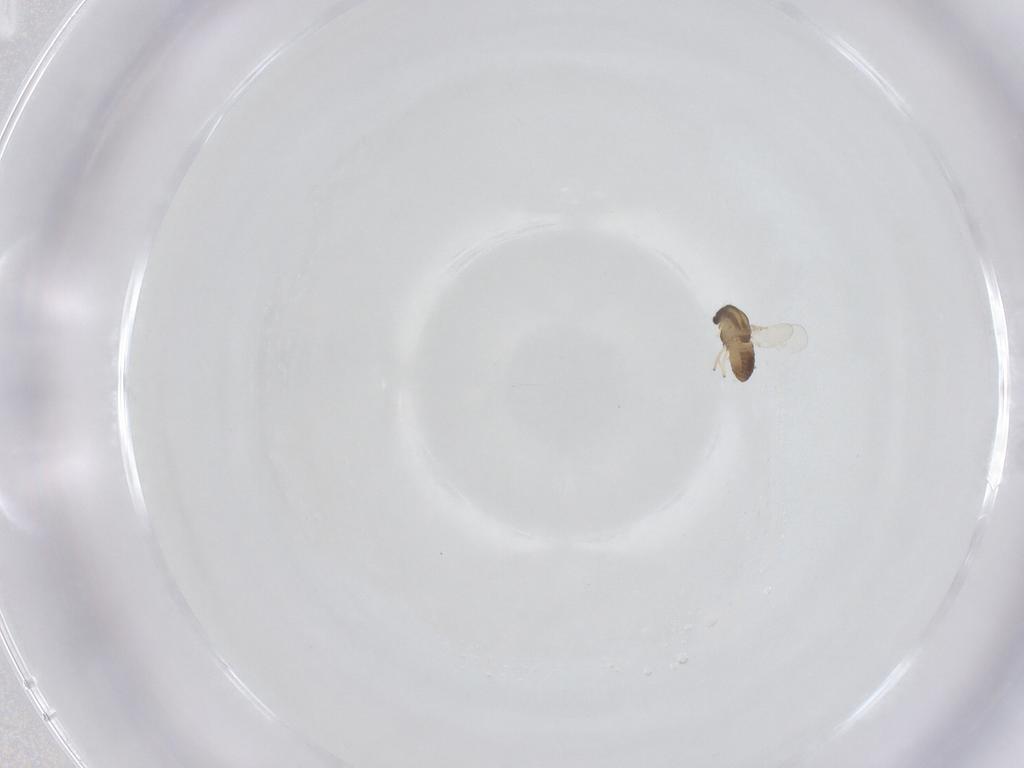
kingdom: Animalia
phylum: Arthropoda
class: Insecta
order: Diptera
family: Chironomidae
